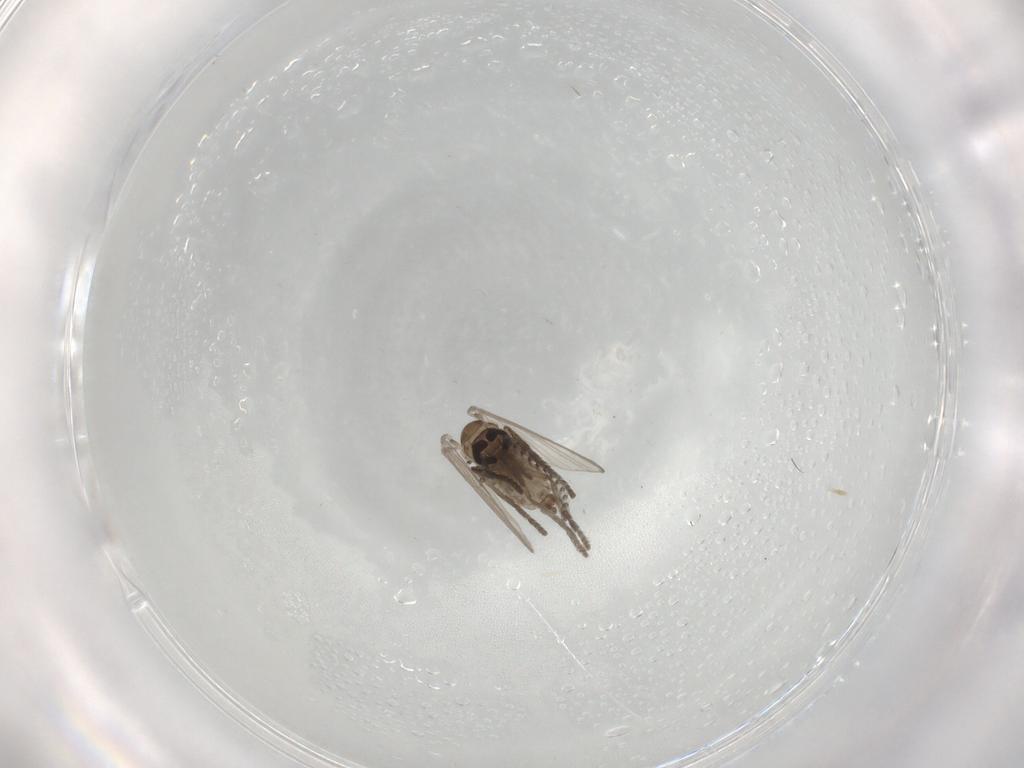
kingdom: Animalia
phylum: Arthropoda
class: Insecta
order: Diptera
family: Psychodidae
